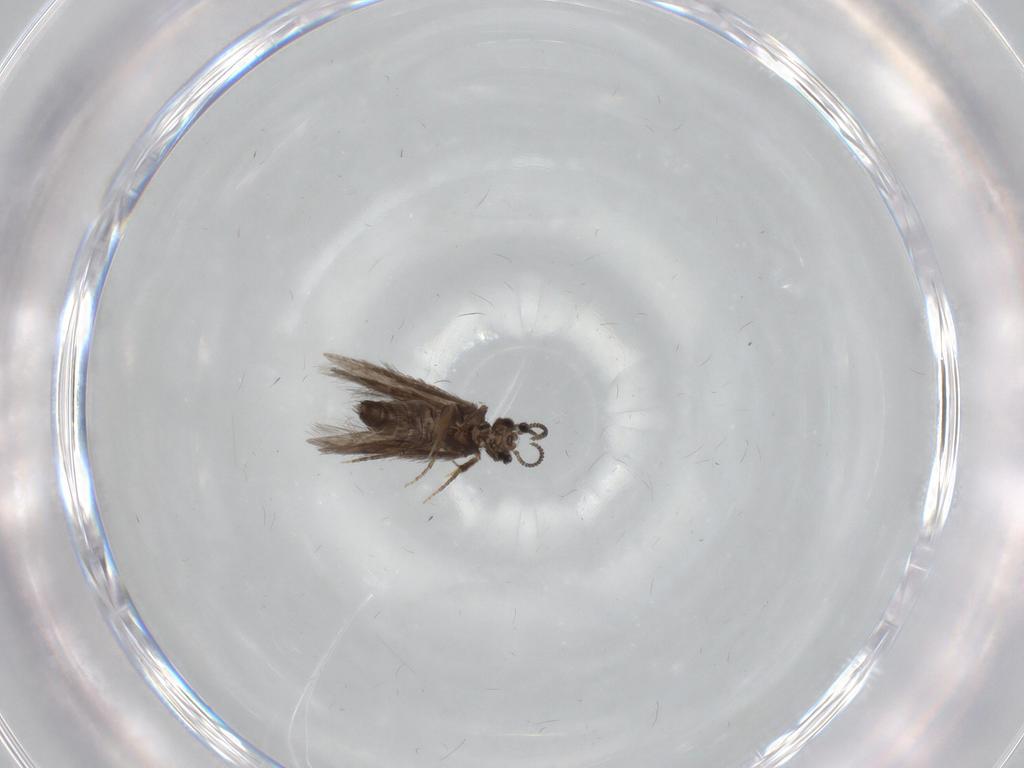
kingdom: Animalia
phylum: Arthropoda
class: Insecta
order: Trichoptera
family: Hydroptilidae
